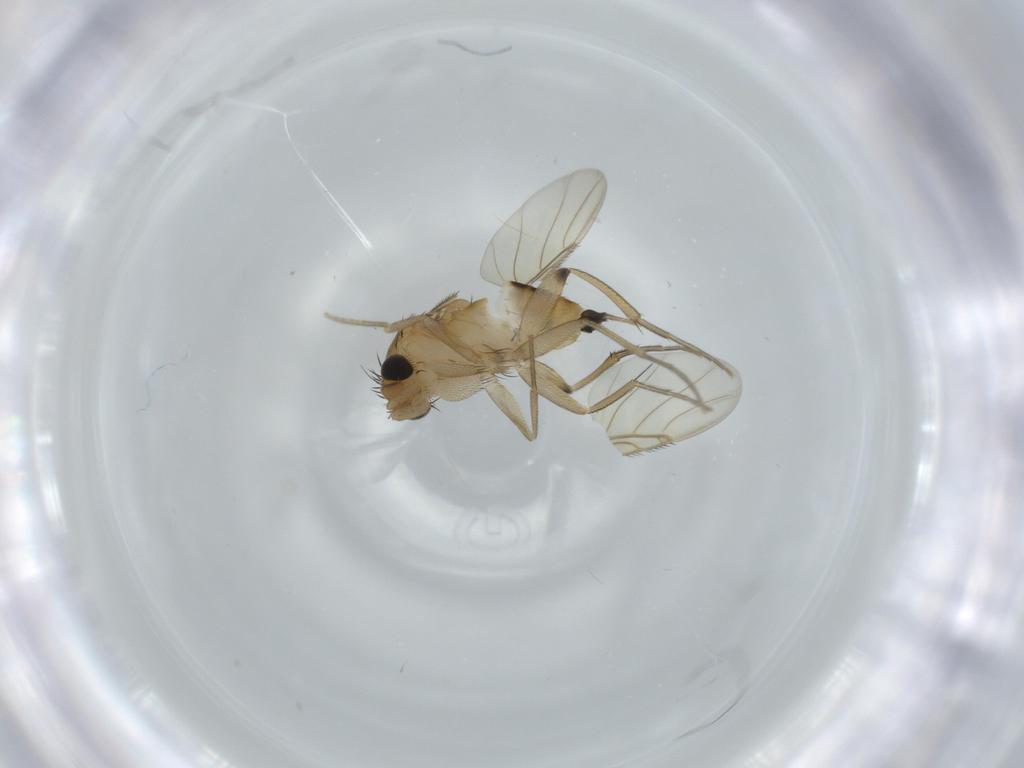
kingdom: Animalia
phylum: Arthropoda
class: Insecta
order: Diptera
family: Phoridae
